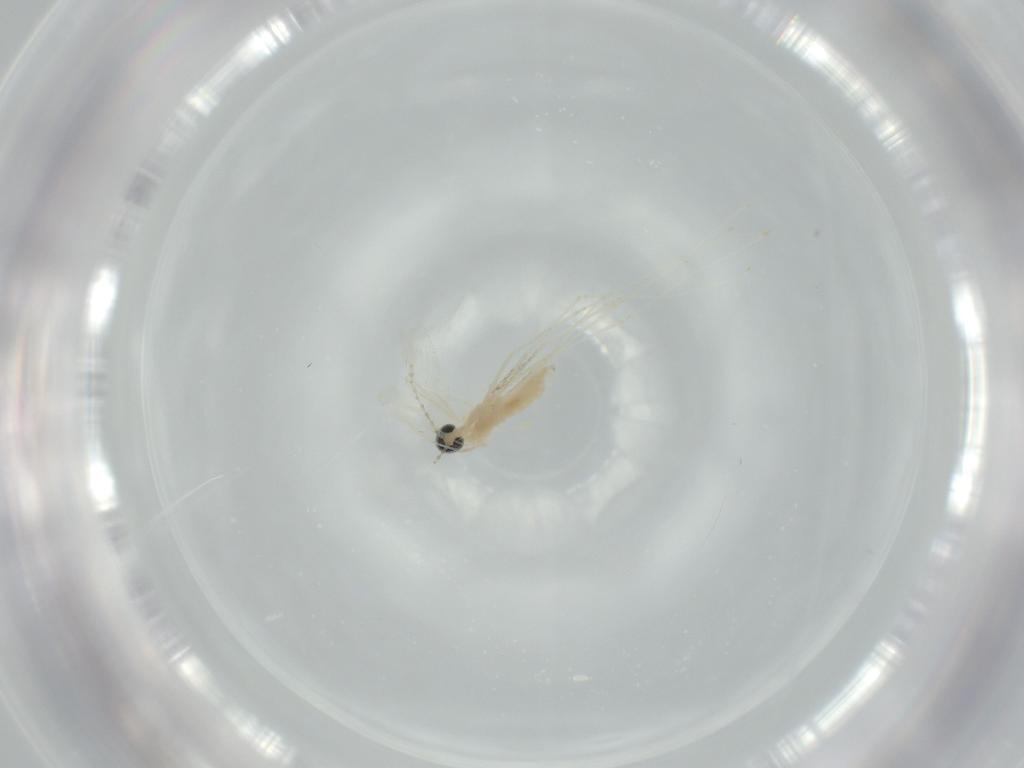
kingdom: Animalia
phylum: Arthropoda
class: Insecta
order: Diptera
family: Cecidomyiidae
